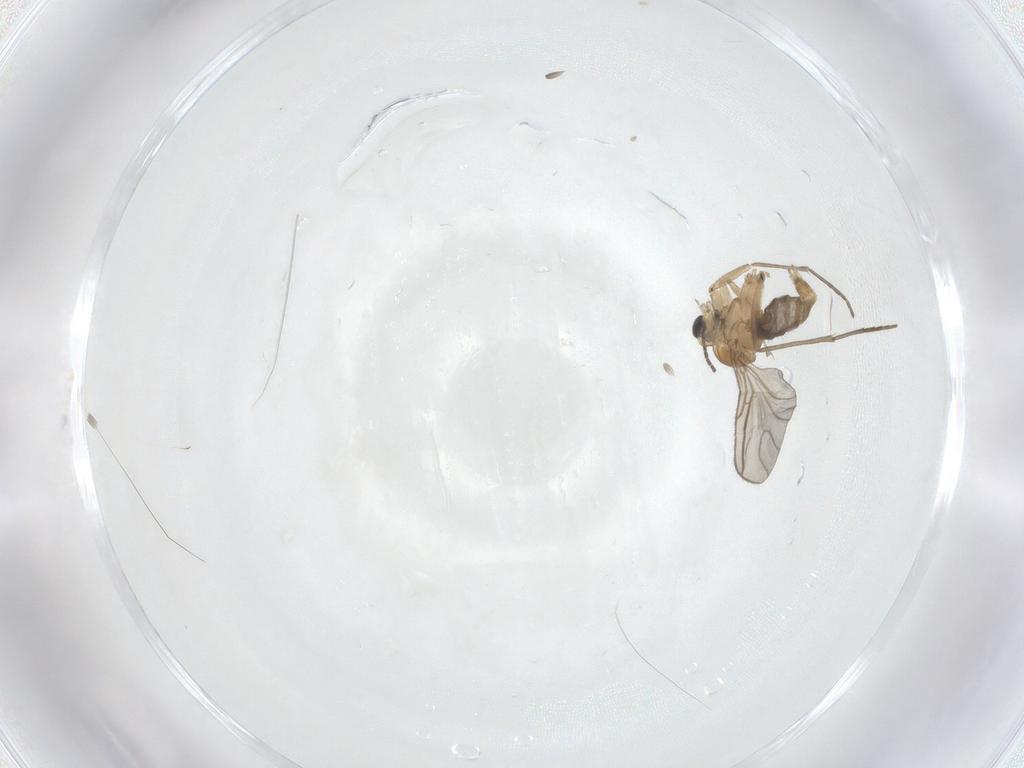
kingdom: Animalia
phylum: Arthropoda
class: Insecta
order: Diptera
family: Sciaridae
